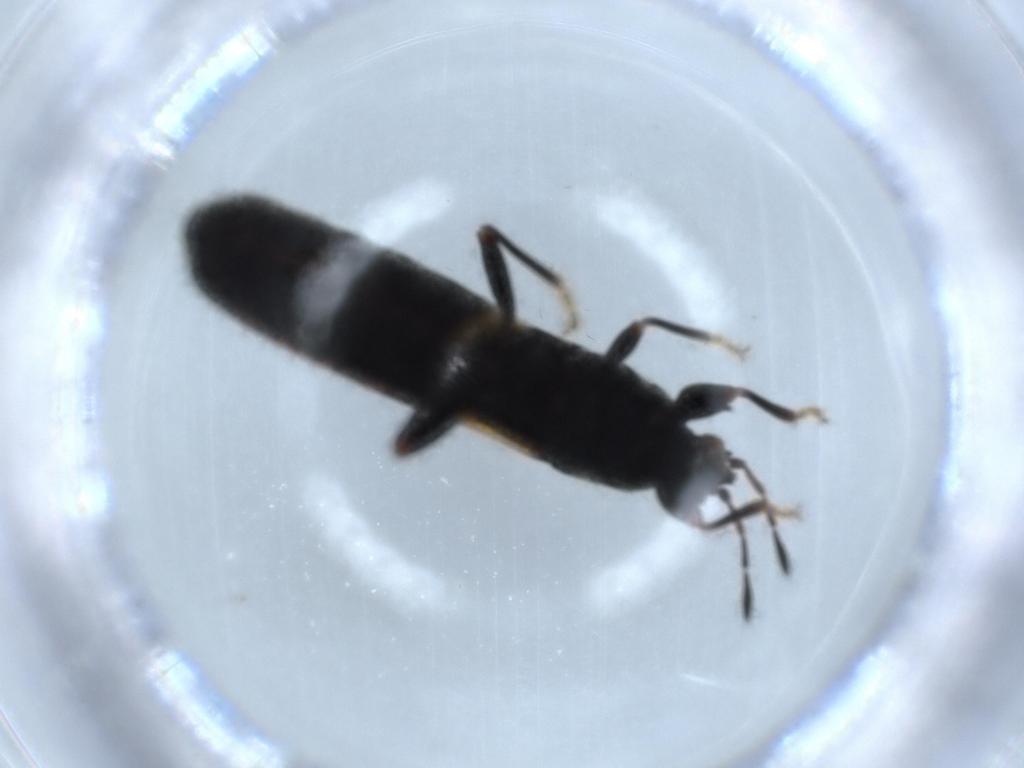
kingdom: Animalia
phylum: Arthropoda
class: Insecta
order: Hemiptera
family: Blissidae
